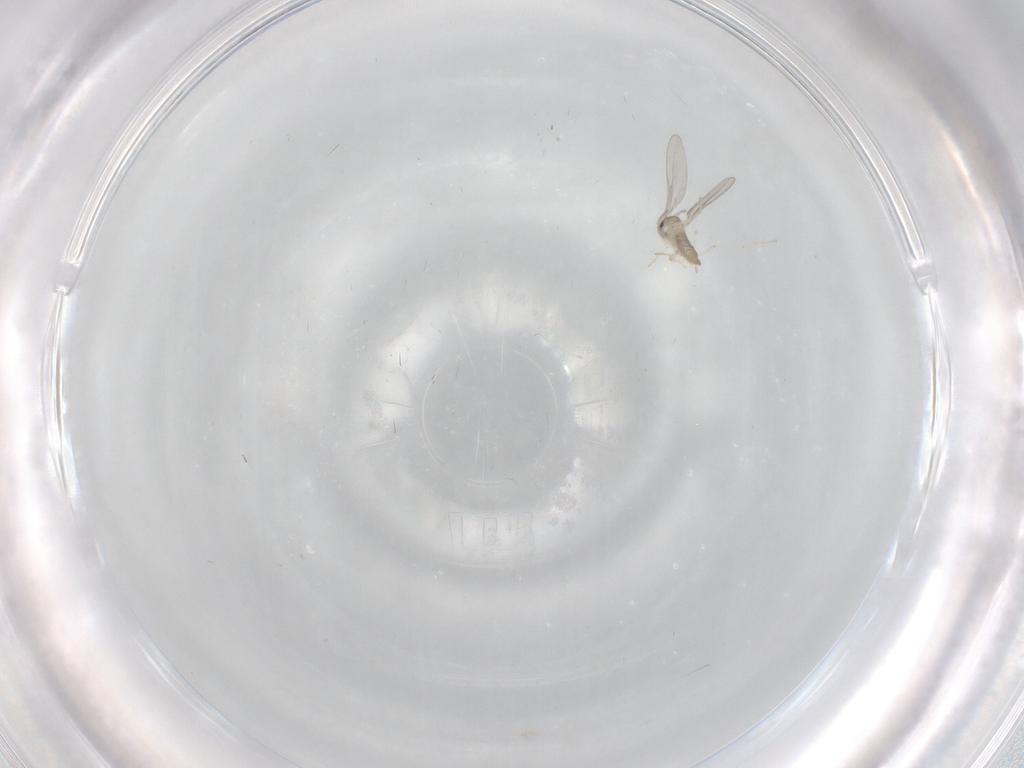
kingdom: Animalia
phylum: Arthropoda
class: Insecta
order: Diptera
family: Cecidomyiidae
